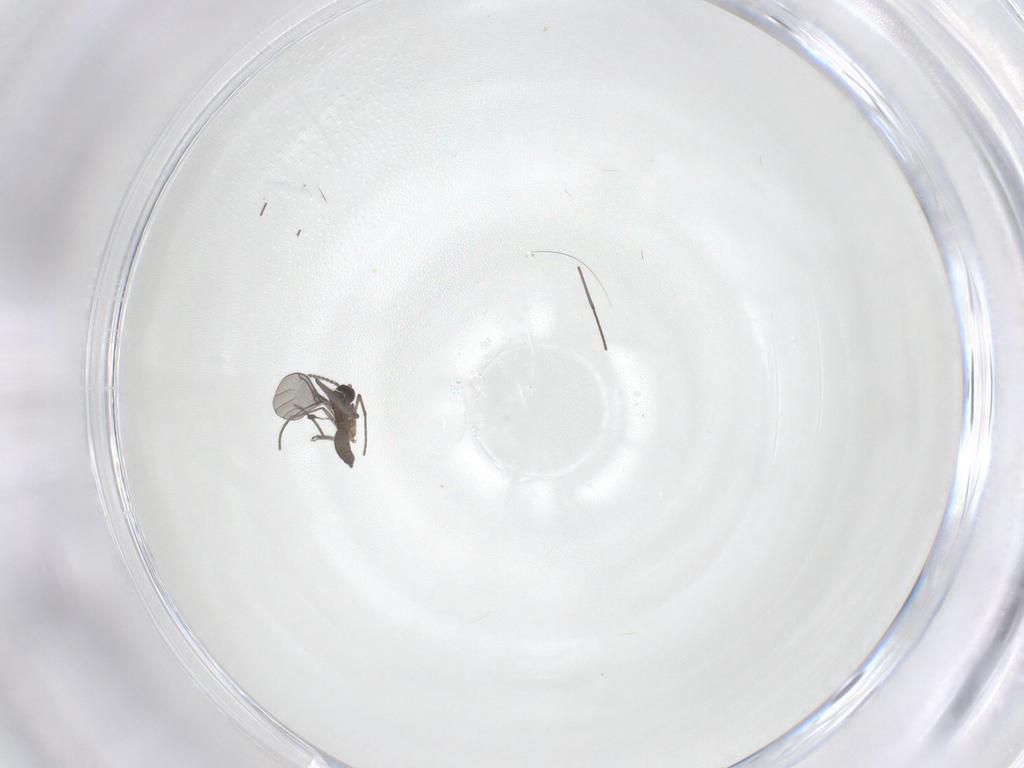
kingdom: Animalia
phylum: Arthropoda
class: Insecta
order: Diptera
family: Sciaridae
